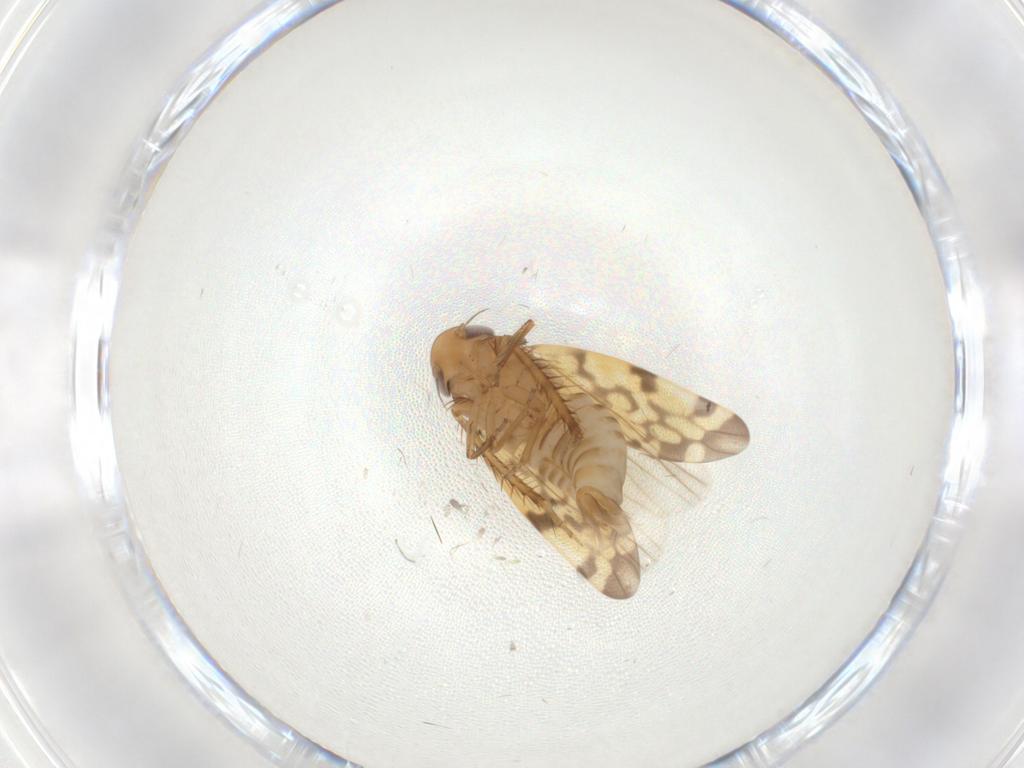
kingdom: Animalia
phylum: Arthropoda
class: Insecta
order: Hemiptera
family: Cicadellidae
